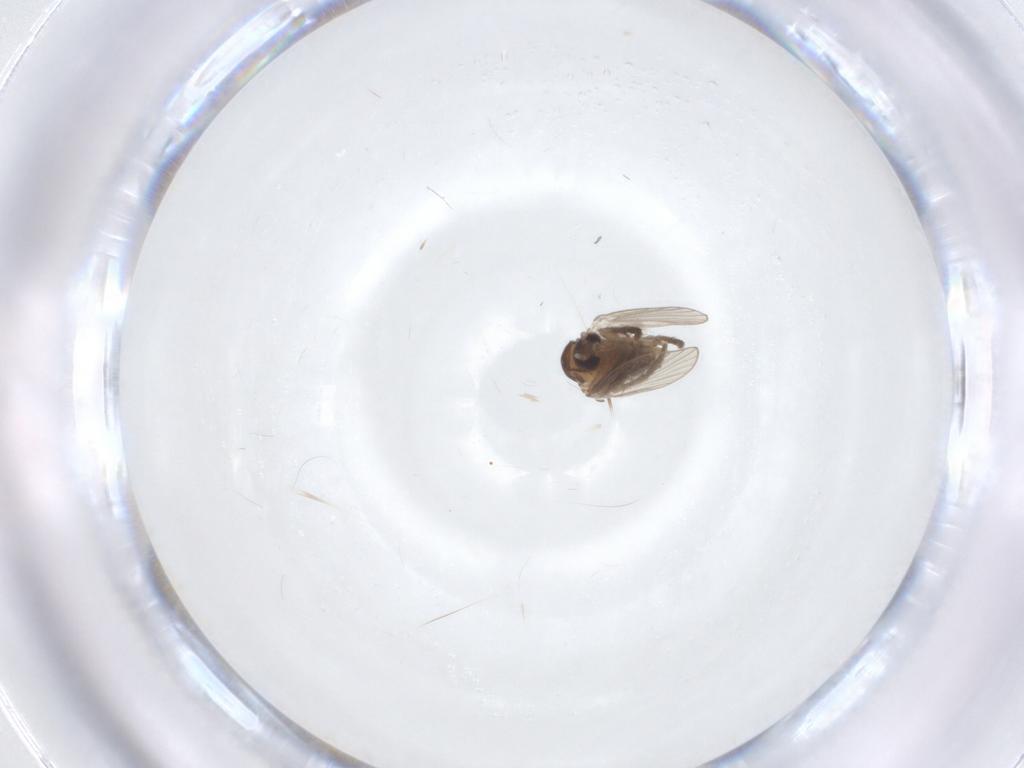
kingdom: Animalia
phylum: Arthropoda
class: Insecta
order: Diptera
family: Psychodidae
